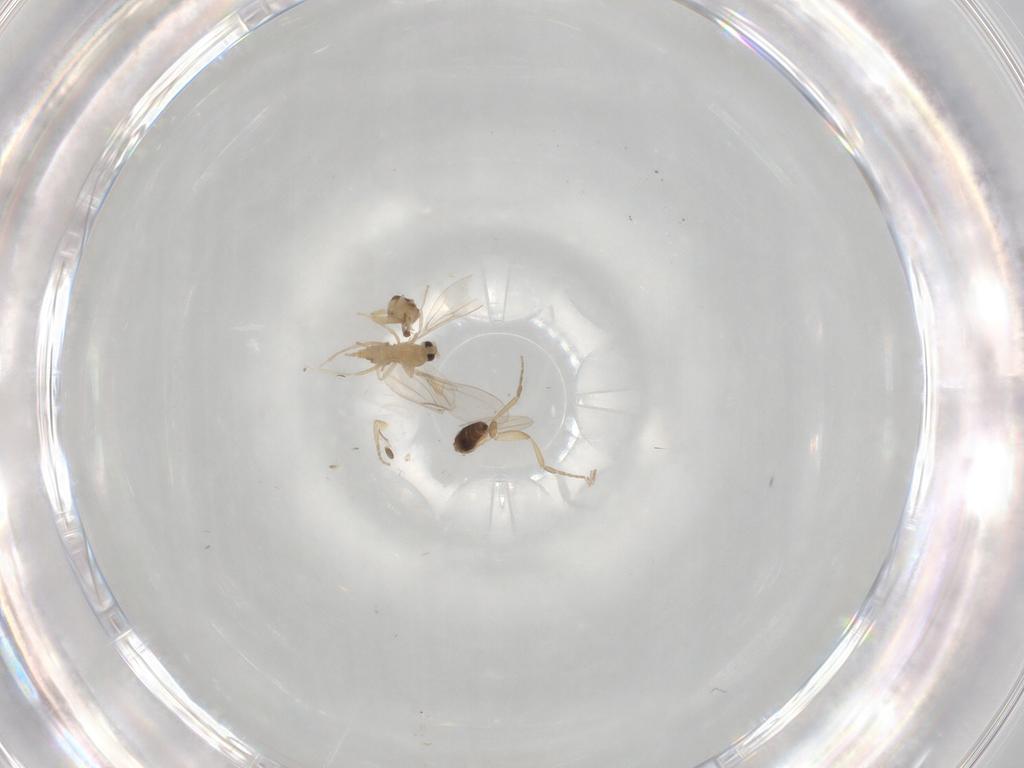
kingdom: Animalia
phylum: Arthropoda
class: Insecta
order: Diptera
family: Cecidomyiidae
